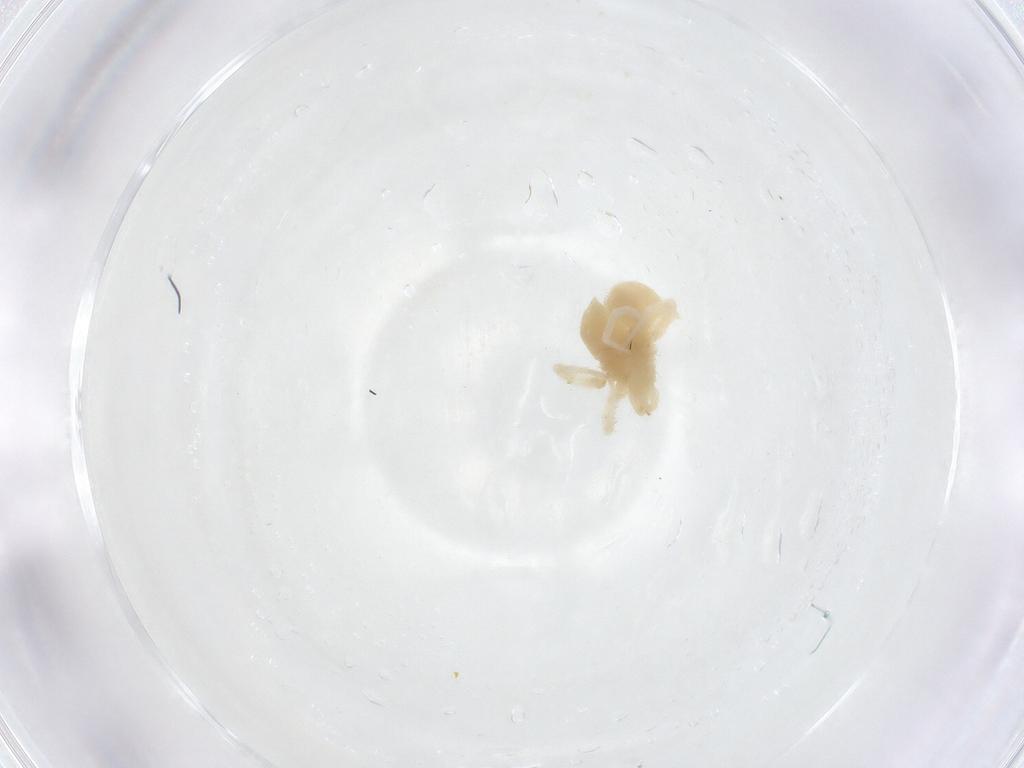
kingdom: Animalia
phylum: Arthropoda
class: Arachnida
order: Trombidiformes
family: Anystidae
